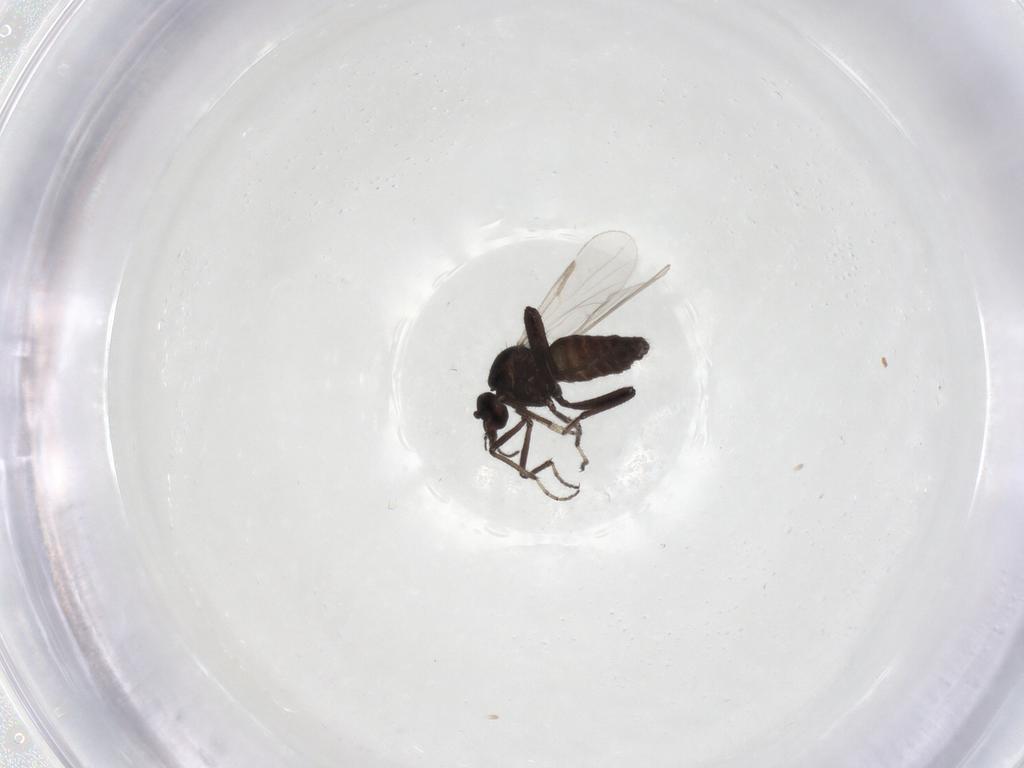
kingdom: Animalia
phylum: Arthropoda
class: Insecta
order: Diptera
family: Ceratopogonidae
